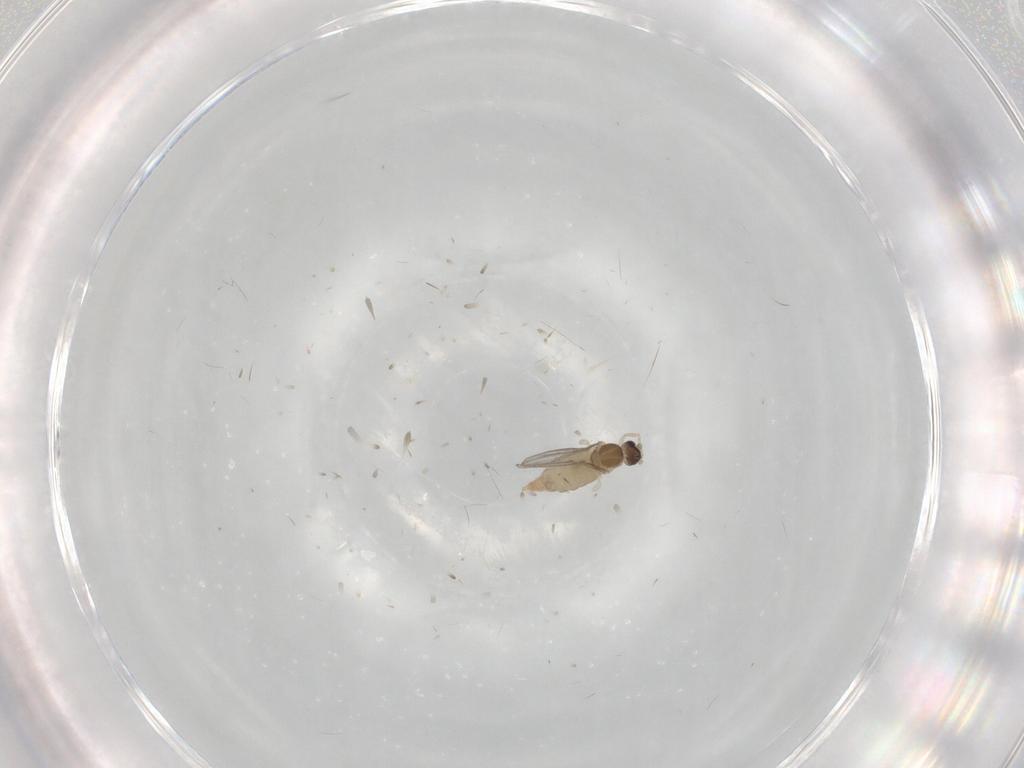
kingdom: Animalia
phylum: Arthropoda
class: Insecta
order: Diptera
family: Cecidomyiidae
